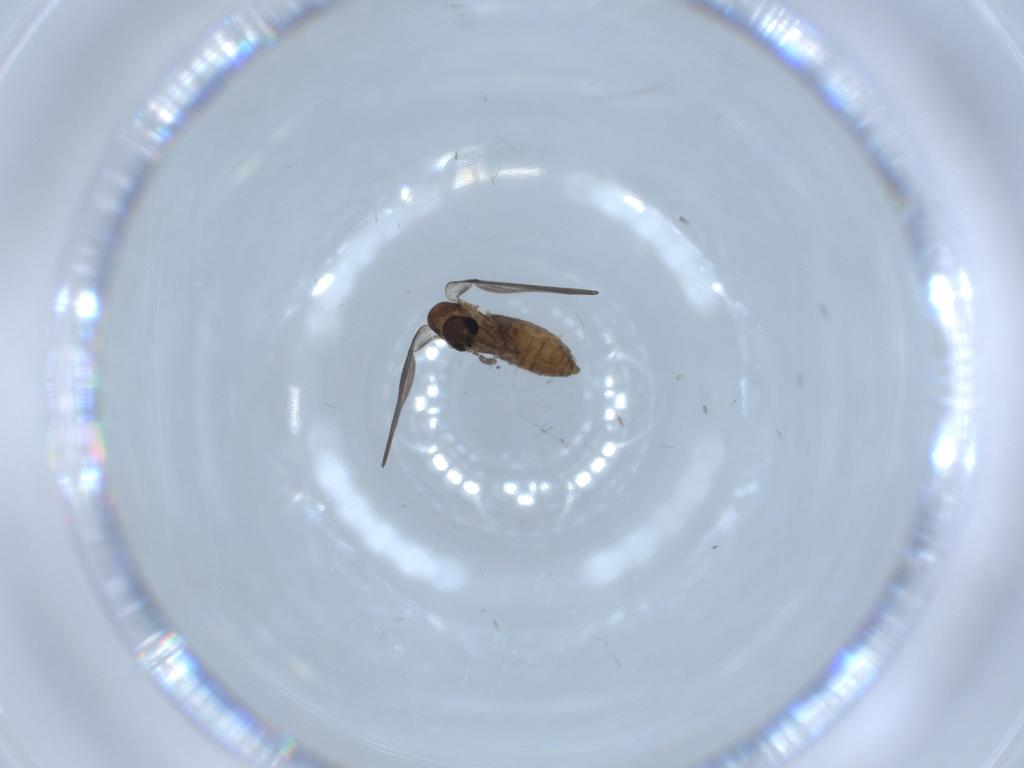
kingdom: Animalia
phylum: Arthropoda
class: Insecta
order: Diptera
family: Psychodidae
